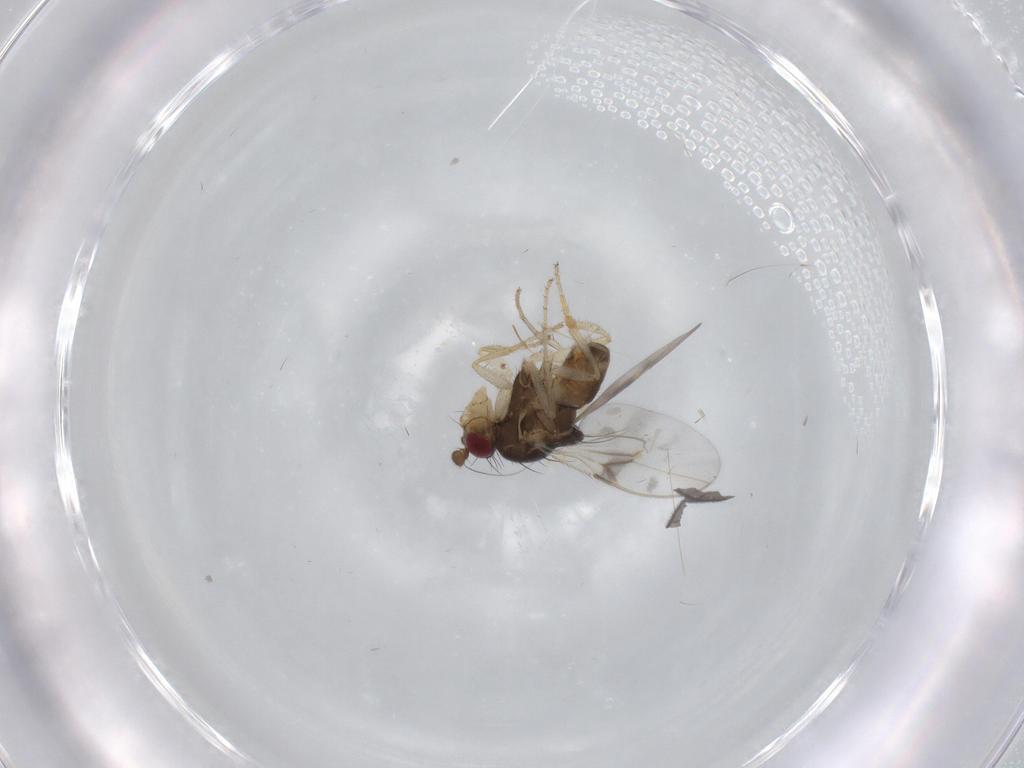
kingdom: Animalia
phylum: Arthropoda
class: Insecta
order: Diptera
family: Sphaeroceridae
